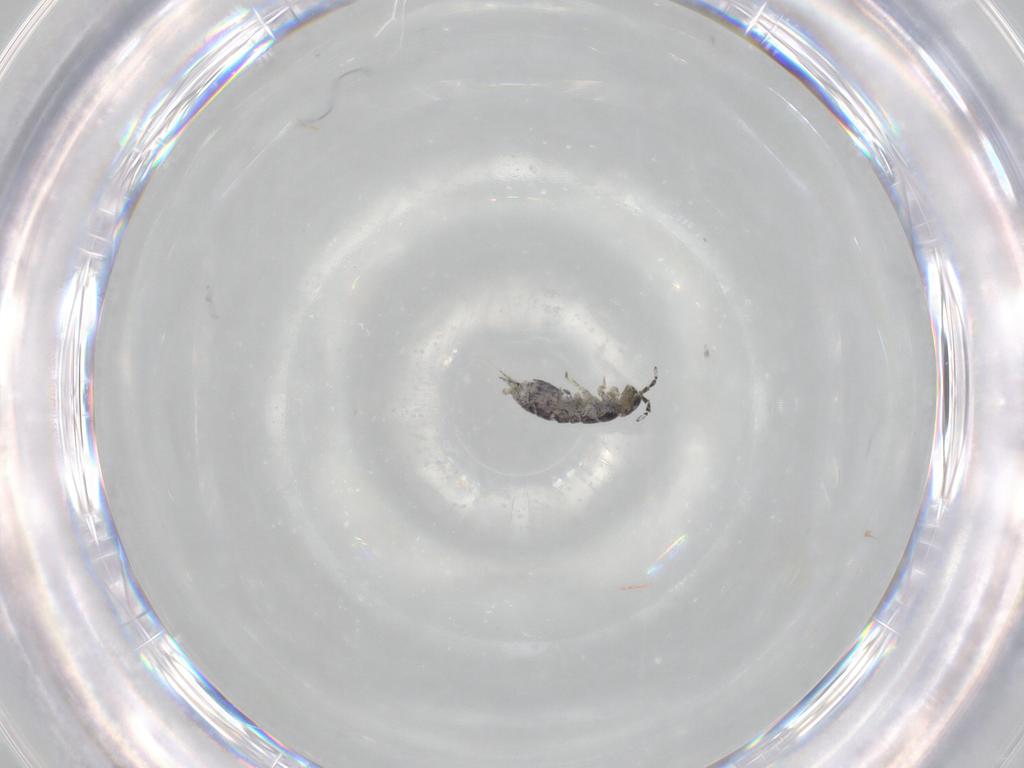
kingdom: Animalia
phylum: Arthropoda
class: Collembola
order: Entomobryomorpha
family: Isotomidae
